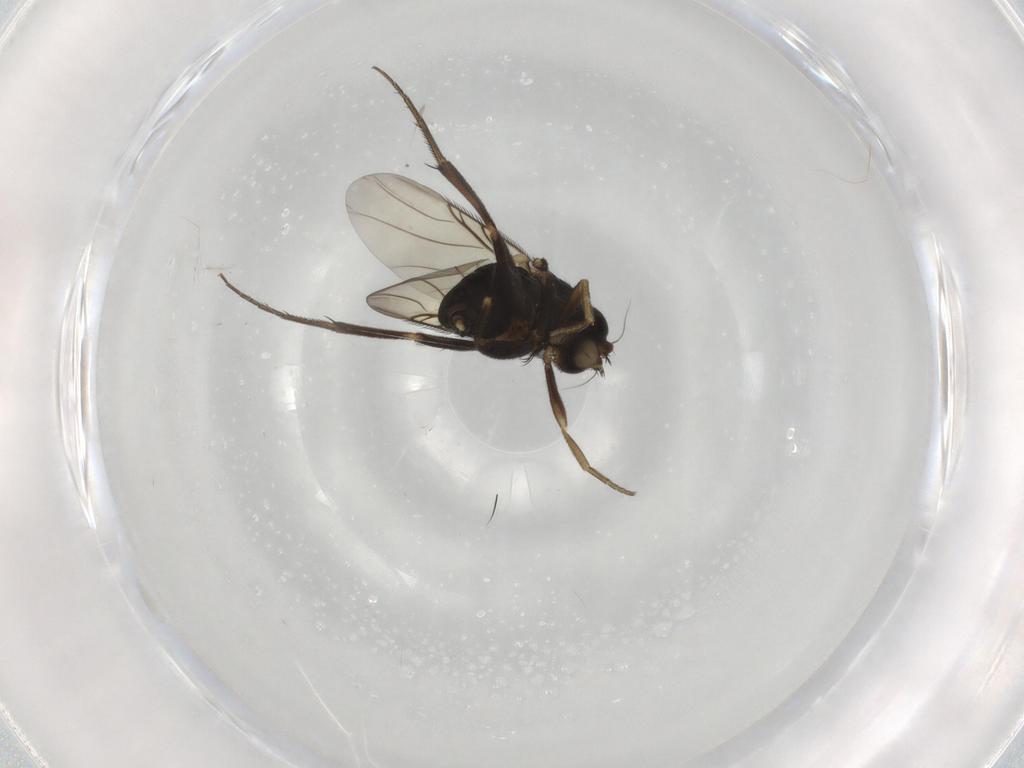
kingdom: Animalia
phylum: Arthropoda
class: Insecta
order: Diptera
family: Phoridae
